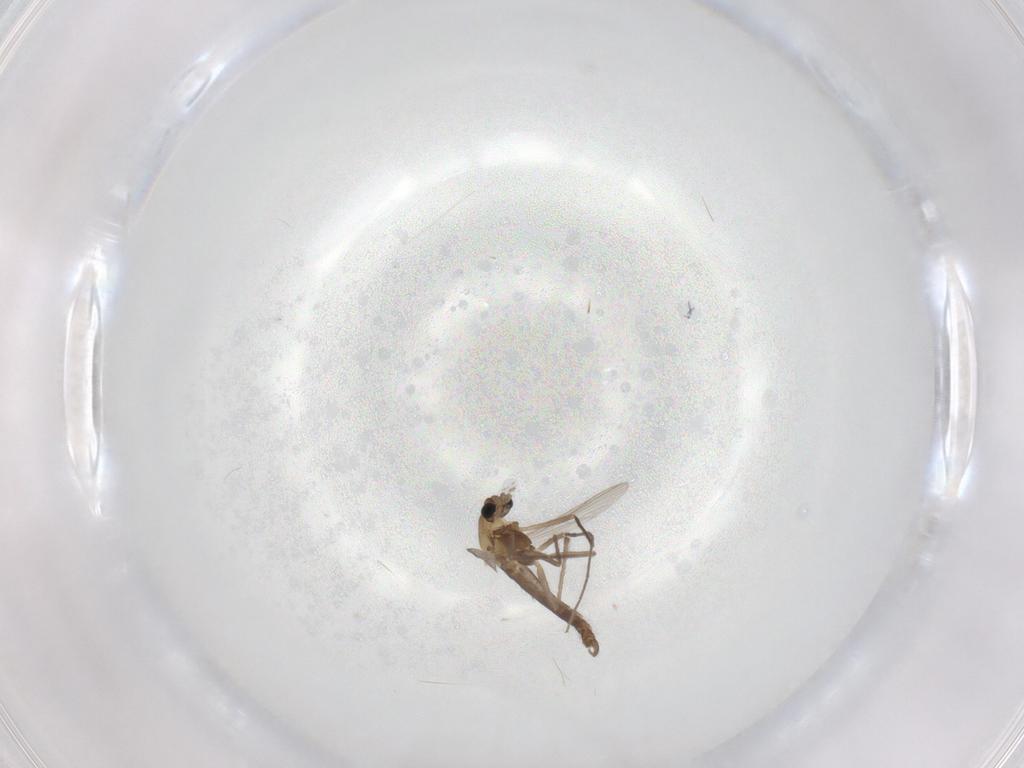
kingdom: Animalia
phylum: Arthropoda
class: Insecta
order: Diptera
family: Chironomidae
